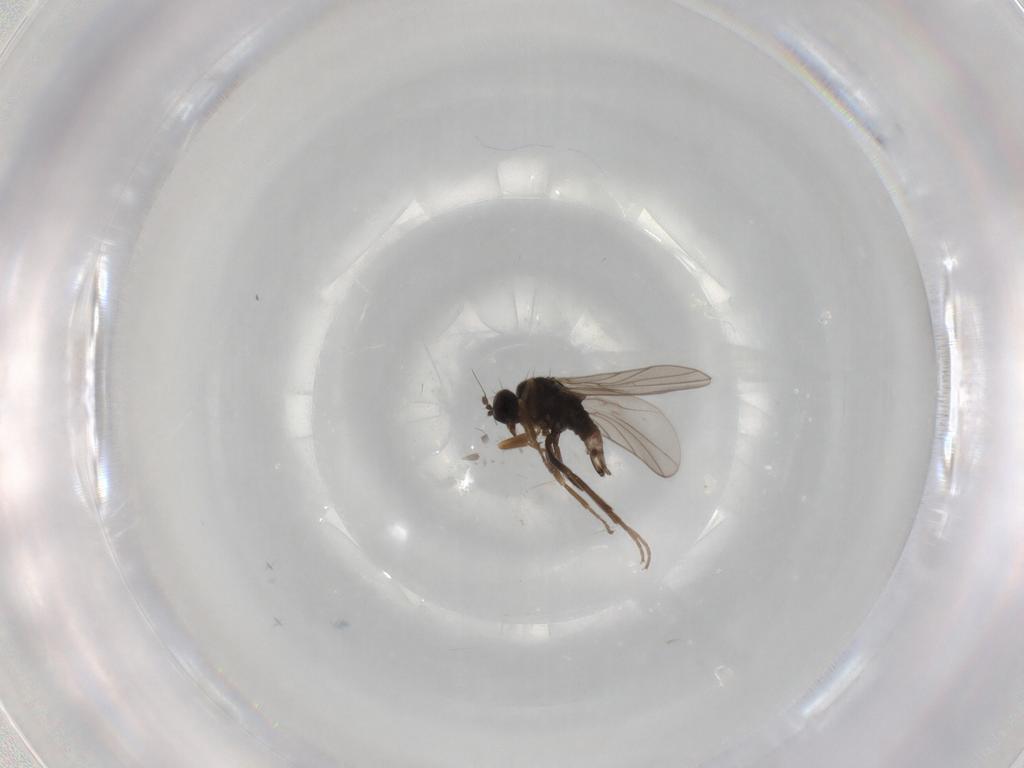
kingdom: Animalia
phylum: Arthropoda
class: Insecta
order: Diptera
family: Hybotidae
